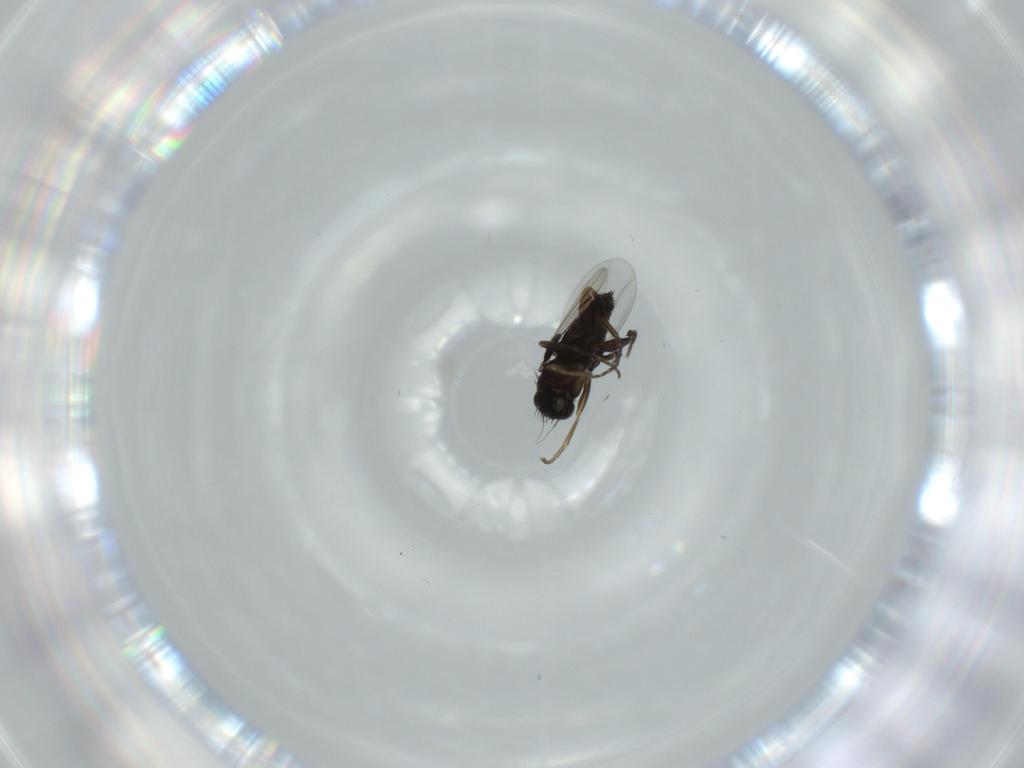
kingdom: Animalia
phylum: Arthropoda
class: Insecta
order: Diptera
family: Phoridae
